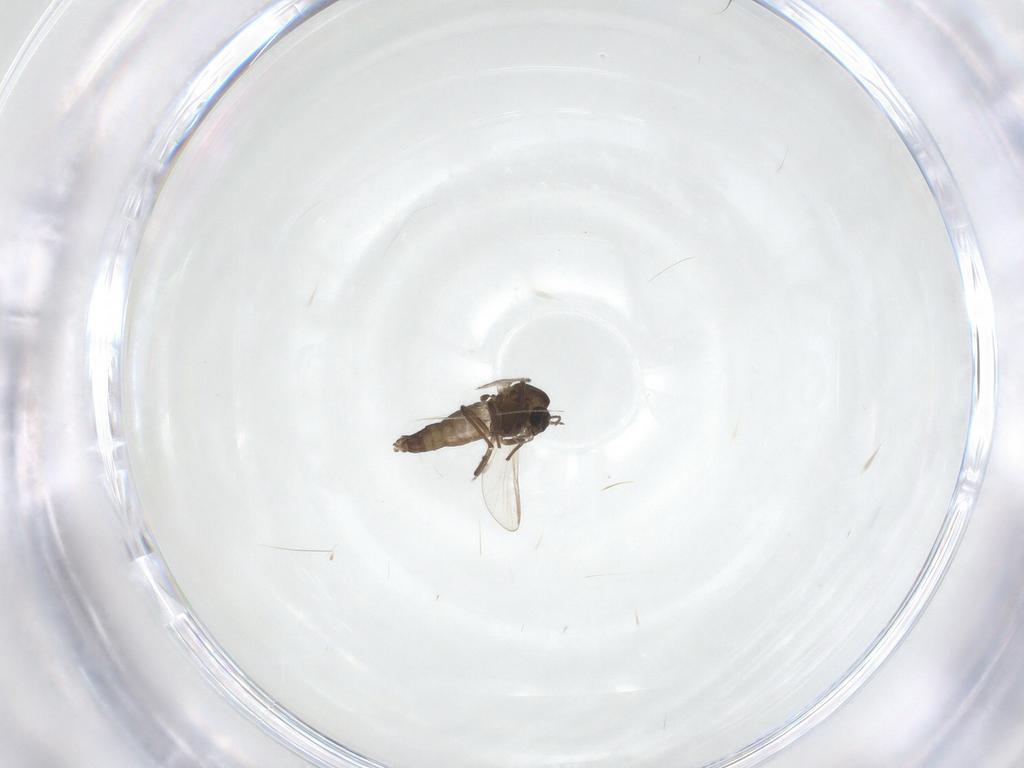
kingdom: Animalia
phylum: Arthropoda
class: Insecta
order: Diptera
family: Chironomidae
